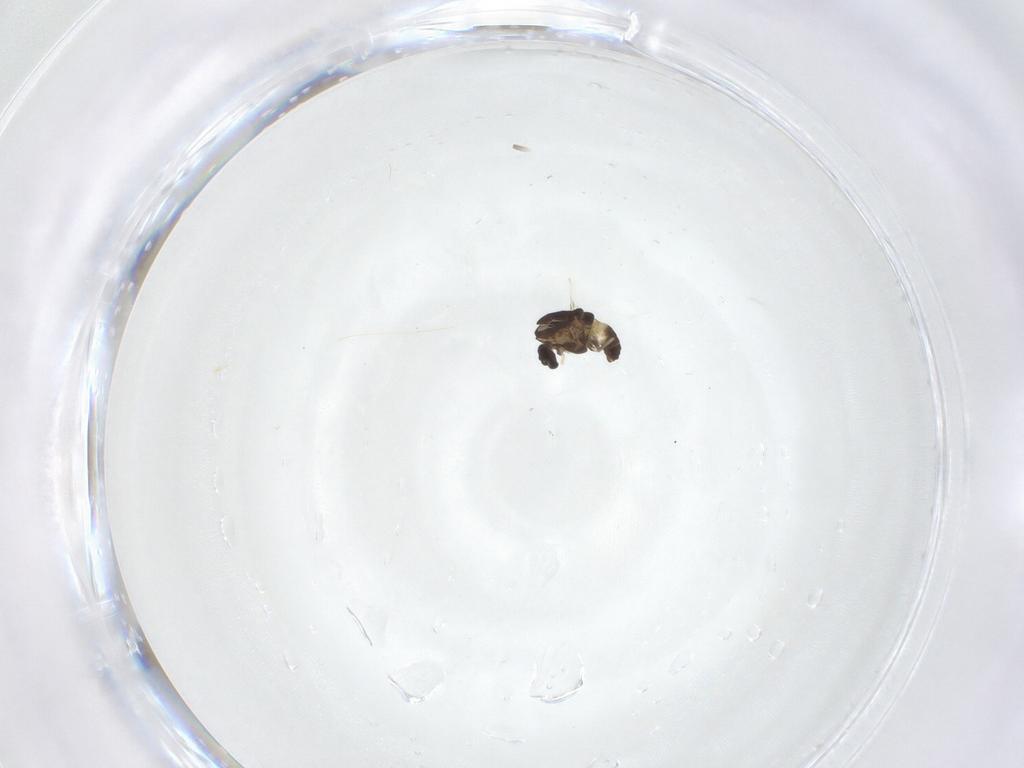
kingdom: Animalia
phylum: Arthropoda
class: Insecta
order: Diptera
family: Chironomidae
